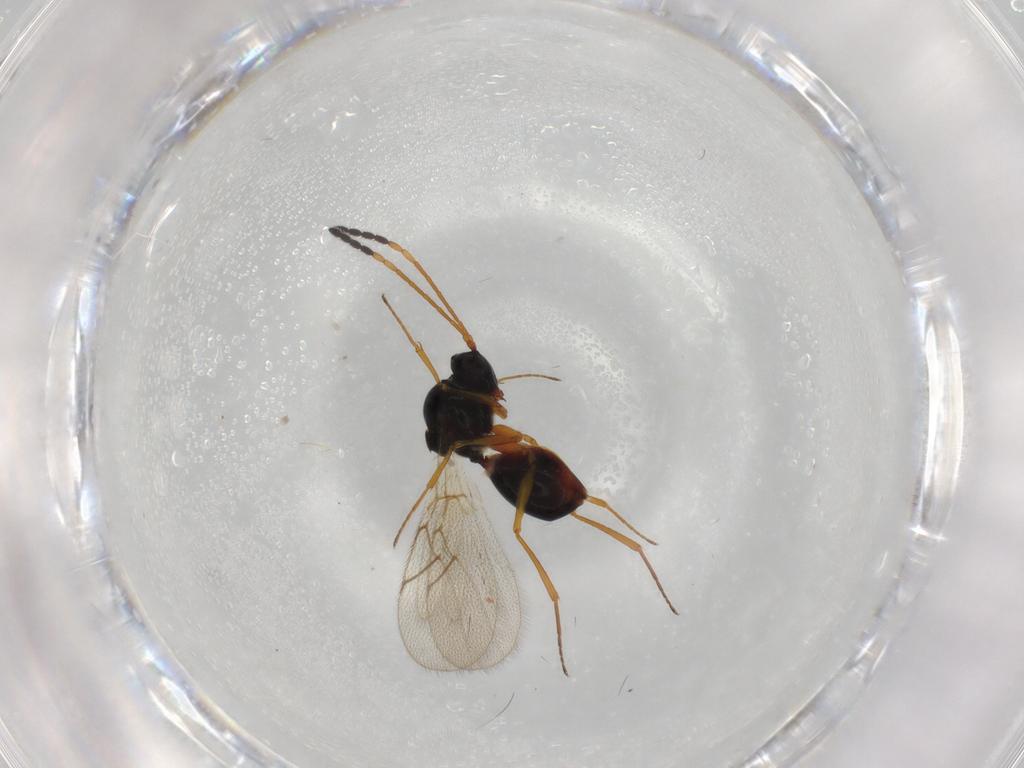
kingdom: Animalia
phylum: Arthropoda
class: Insecta
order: Hymenoptera
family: Figitidae
